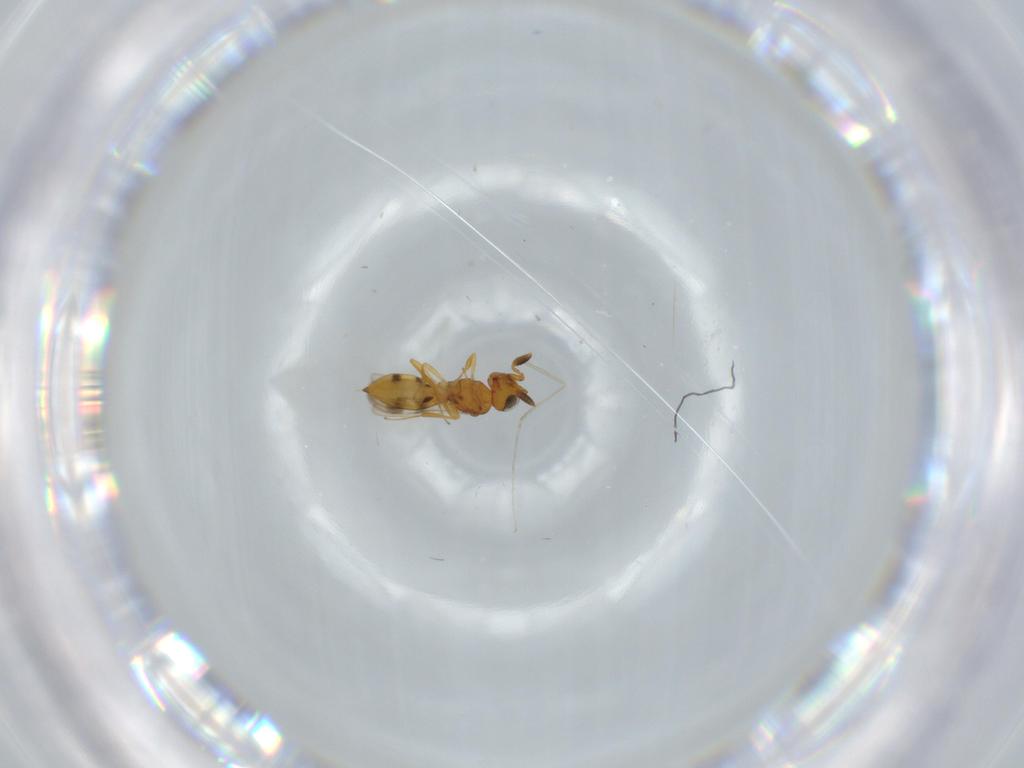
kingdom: Animalia
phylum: Arthropoda
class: Insecta
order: Hymenoptera
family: Scelionidae
